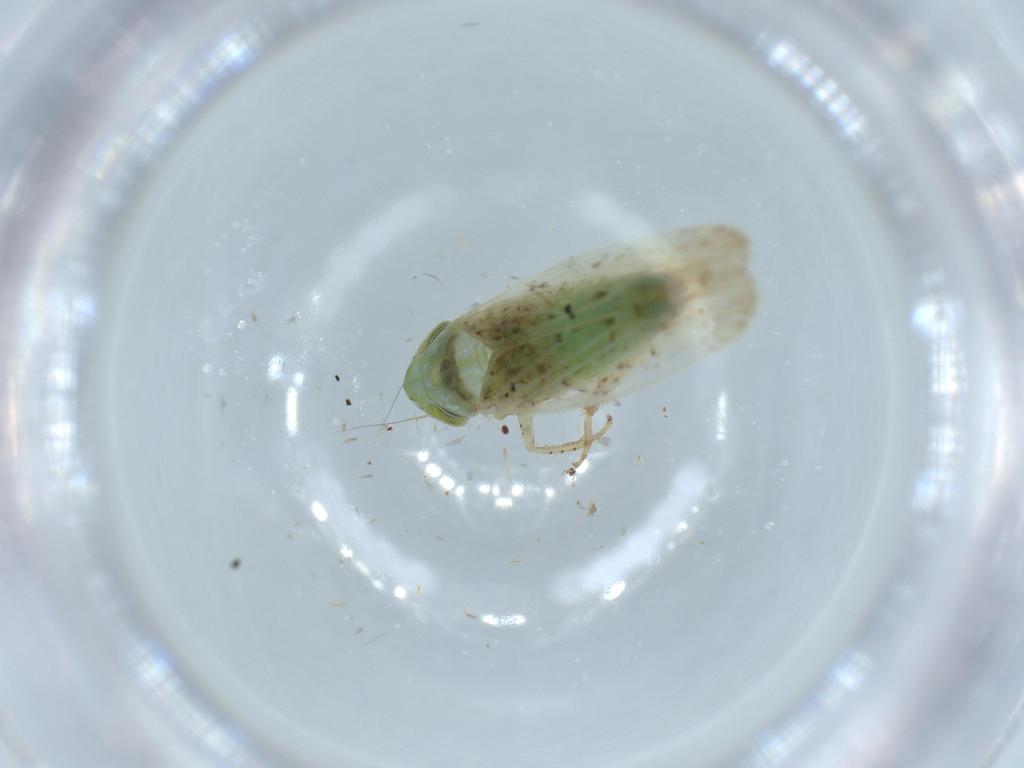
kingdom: Animalia
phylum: Arthropoda
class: Insecta
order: Hemiptera
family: Cicadellidae
